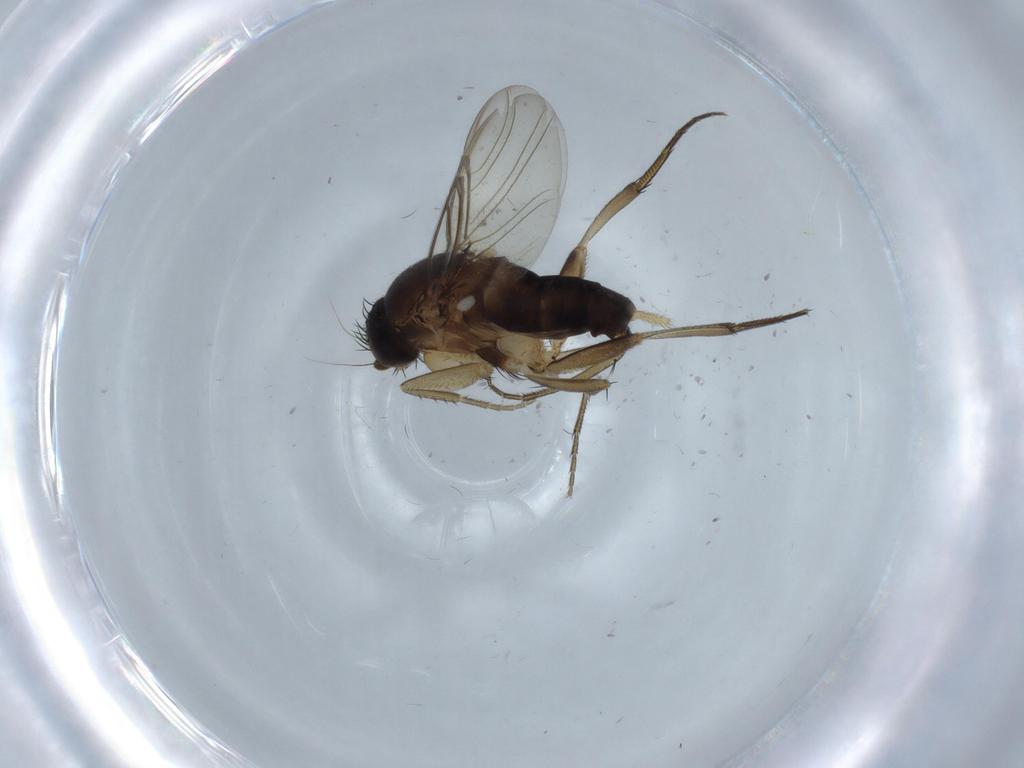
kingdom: Animalia
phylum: Arthropoda
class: Insecta
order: Diptera
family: Phoridae
